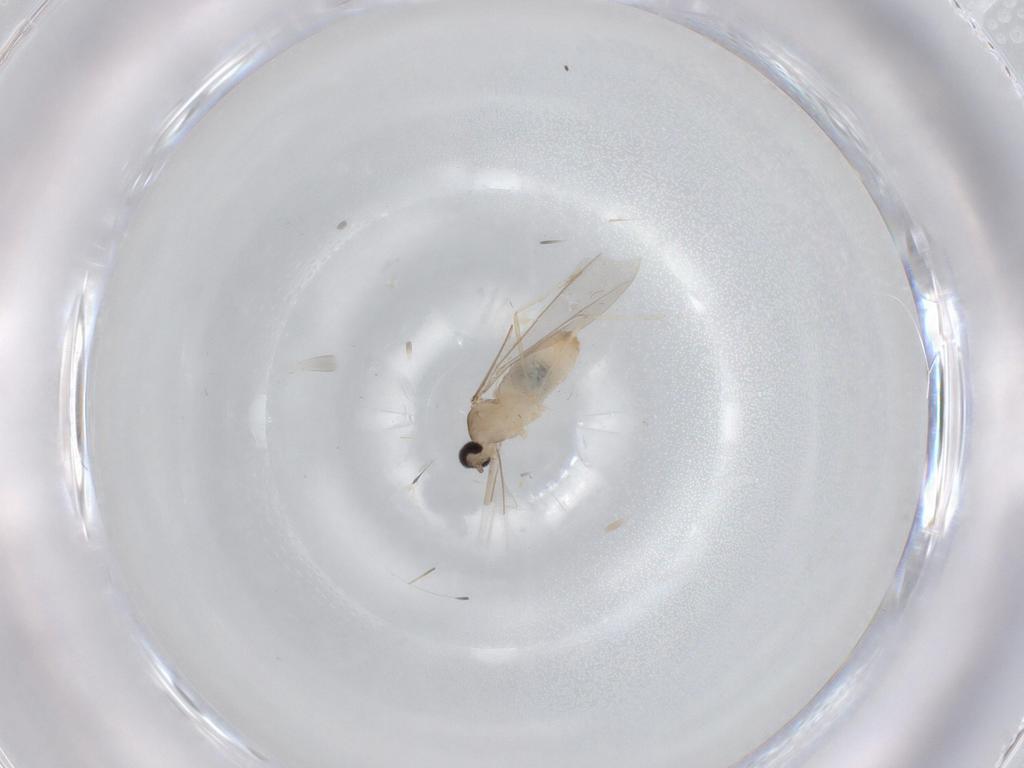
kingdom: Animalia
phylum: Arthropoda
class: Insecta
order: Diptera
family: Cecidomyiidae
